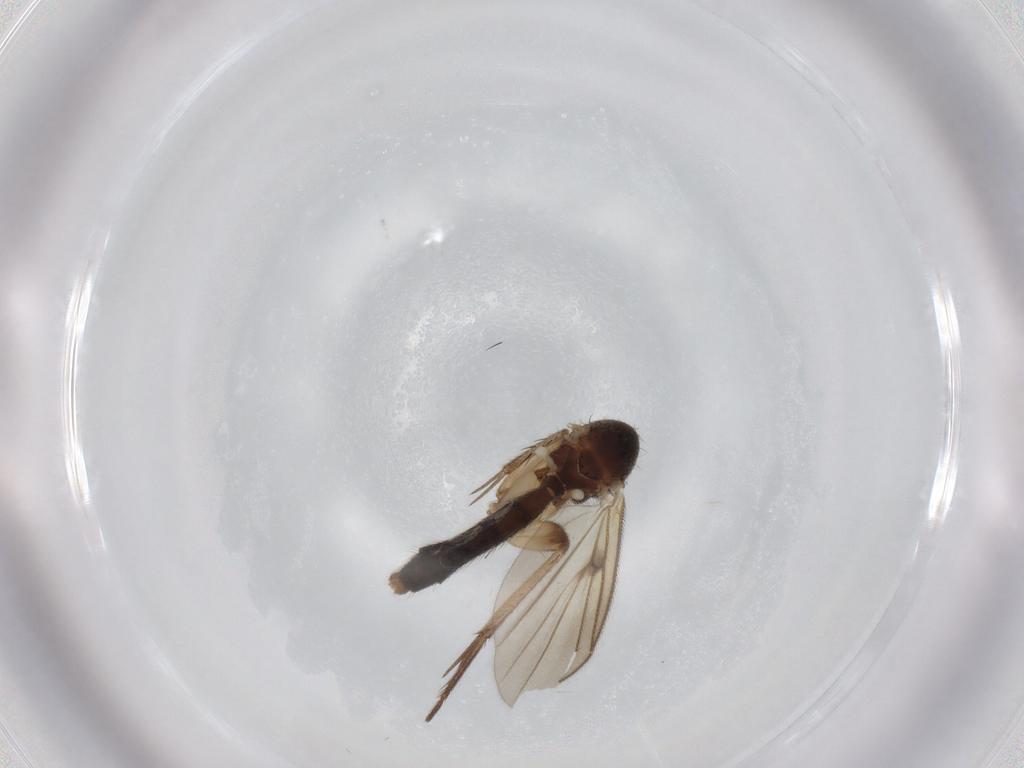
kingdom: Animalia
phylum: Arthropoda
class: Insecta
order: Diptera
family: Mycetophilidae
